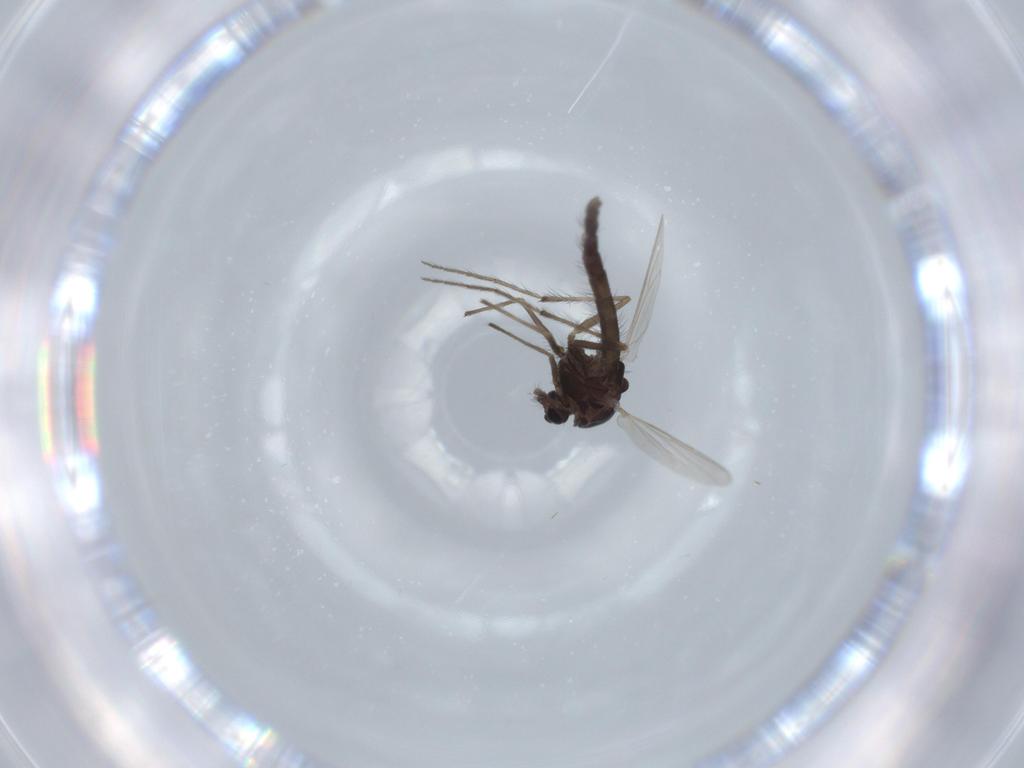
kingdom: Animalia
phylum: Arthropoda
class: Insecta
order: Diptera
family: Chironomidae
